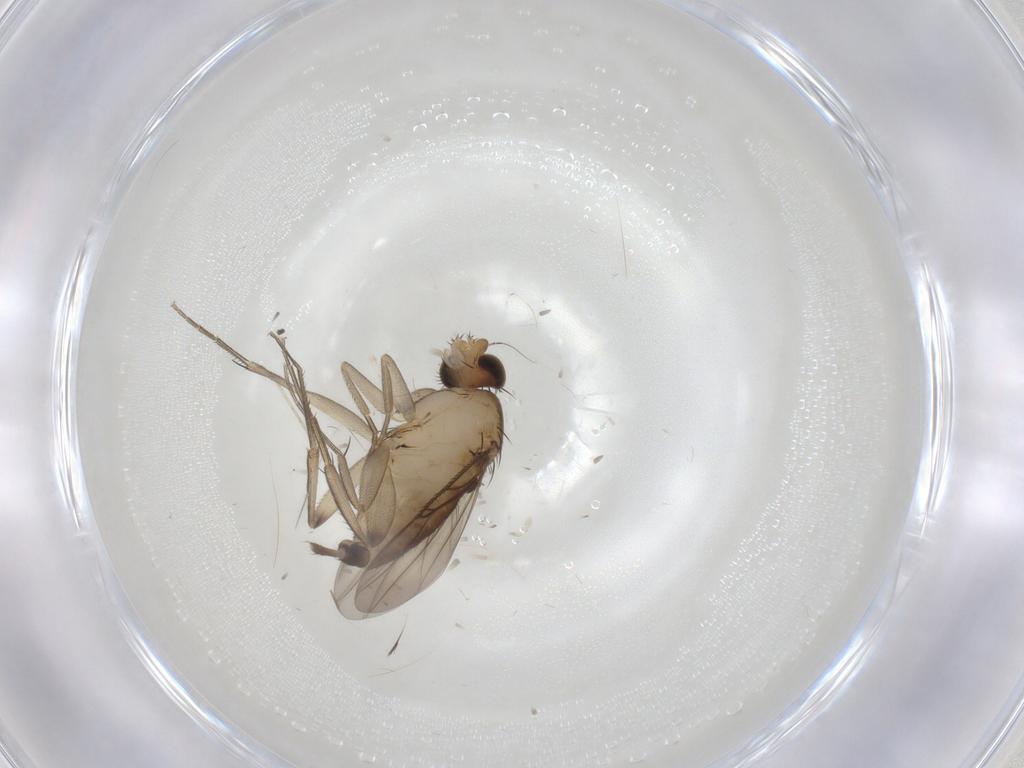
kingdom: Animalia
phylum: Arthropoda
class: Insecta
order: Diptera
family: Phoridae
